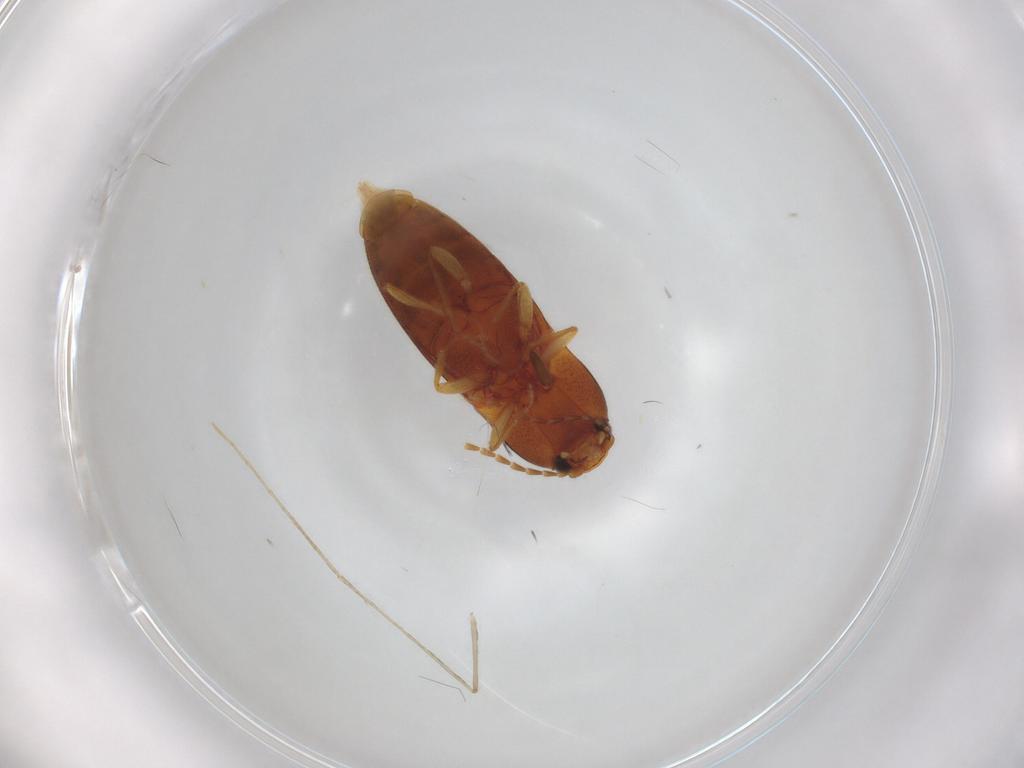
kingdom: Animalia
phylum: Arthropoda
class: Insecta
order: Coleoptera
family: Elateridae
